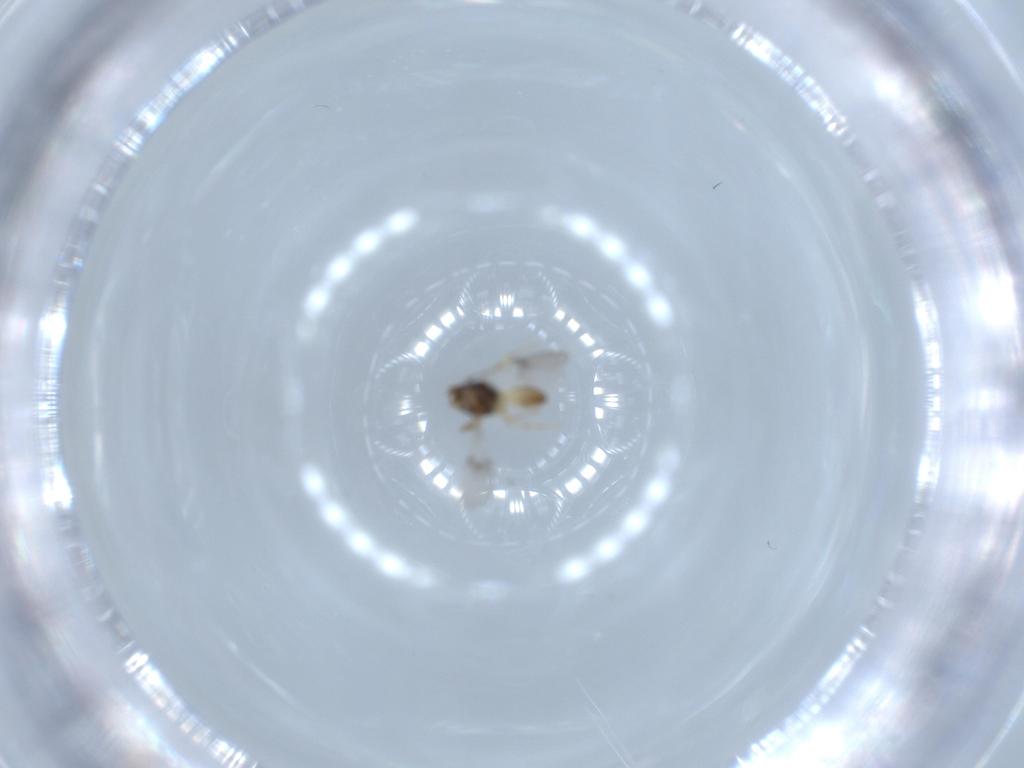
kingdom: Animalia
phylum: Arthropoda
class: Insecta
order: Hymenoptera
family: Scelionidae
